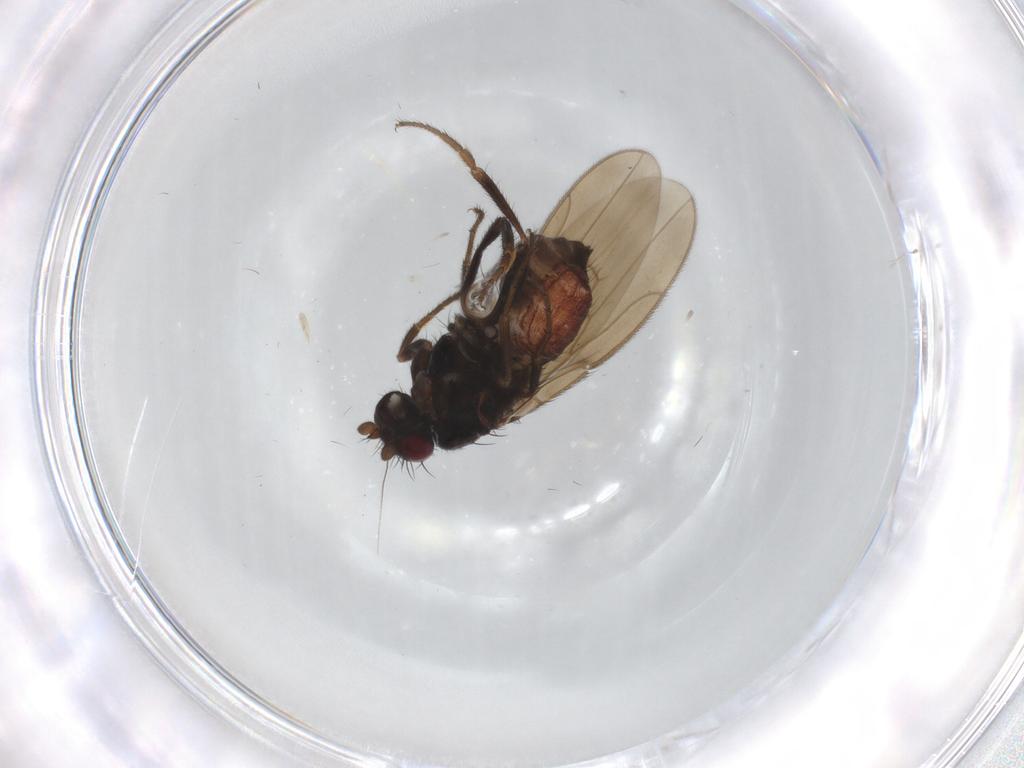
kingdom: Animalia
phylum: Arthropoda
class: Insecta
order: Diptera
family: Sphaeroceridae
